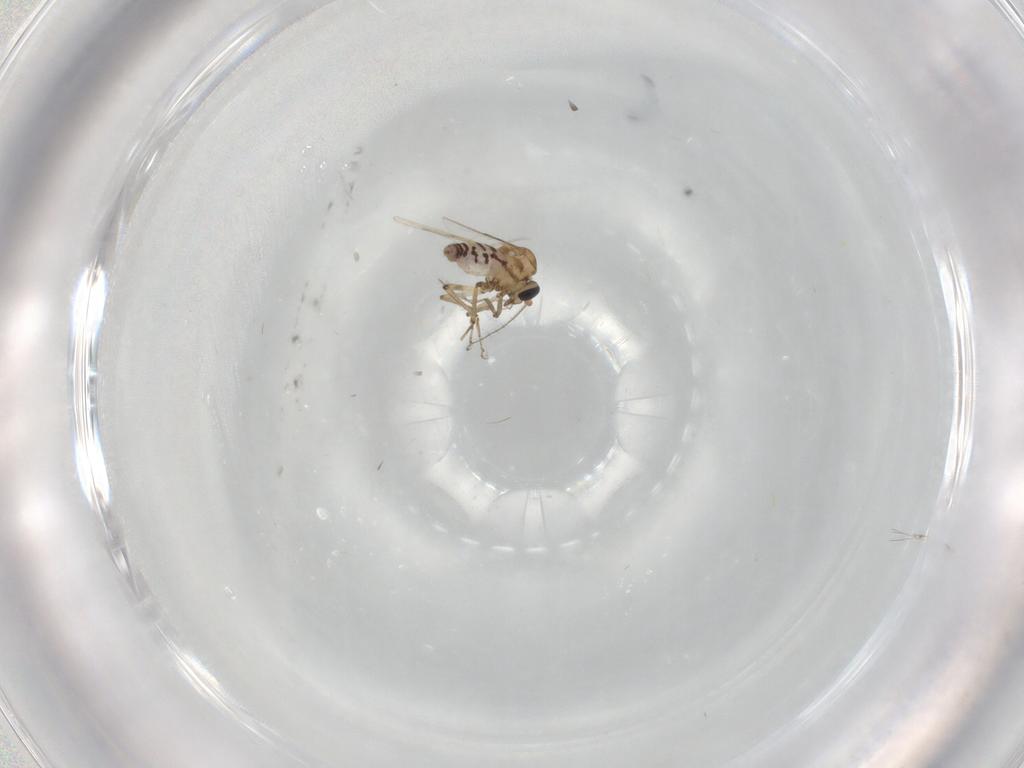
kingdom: Animalia
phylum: Arthropoda
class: Insecta
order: Diptera
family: Ceratopogonidae
